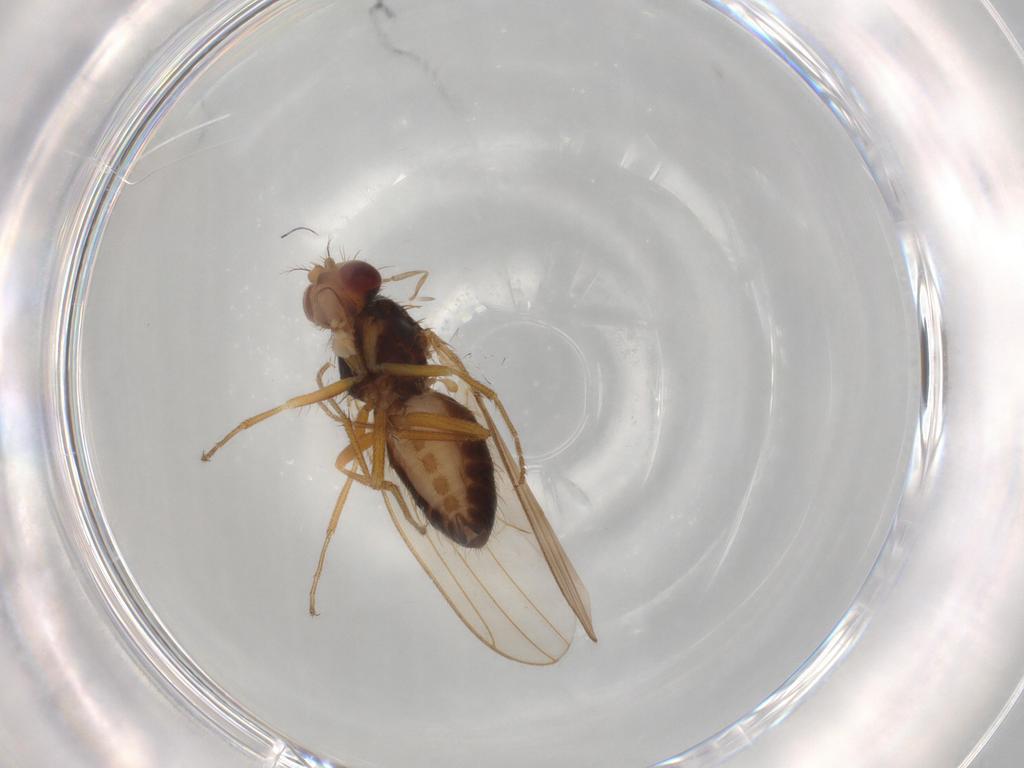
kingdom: Animalia
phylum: Arthropoda
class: Insecta
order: Diptera
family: Drosophilidae
